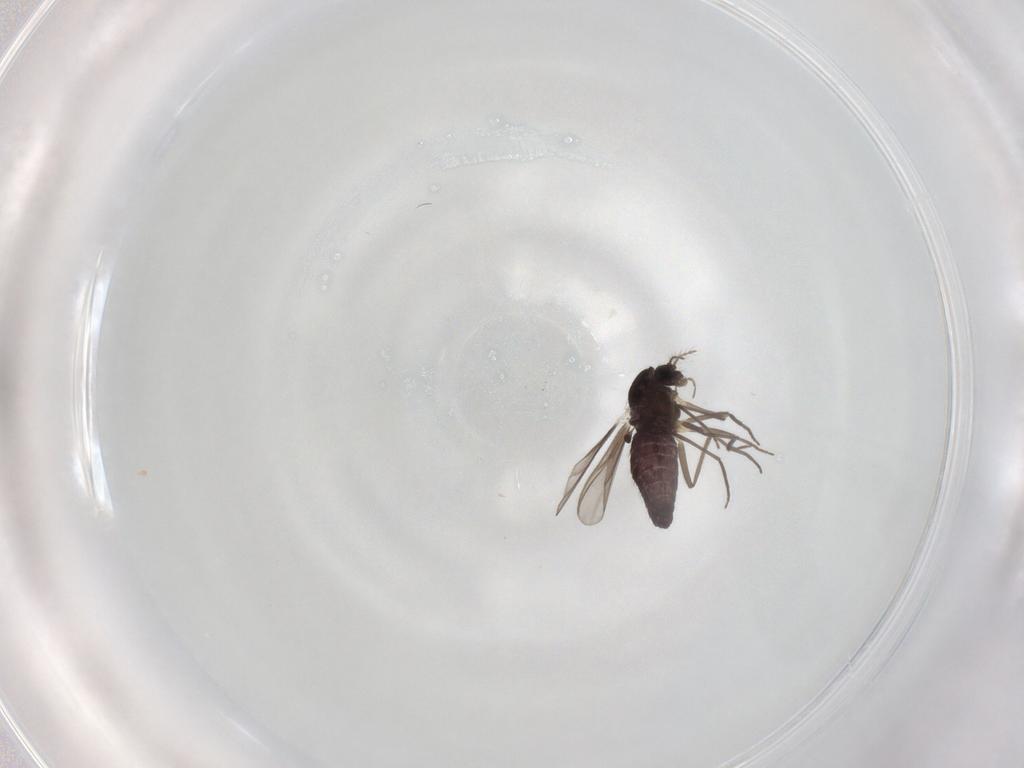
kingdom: Animalia
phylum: Arthropoda
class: Insecta
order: Diptera
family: Chironomidae
